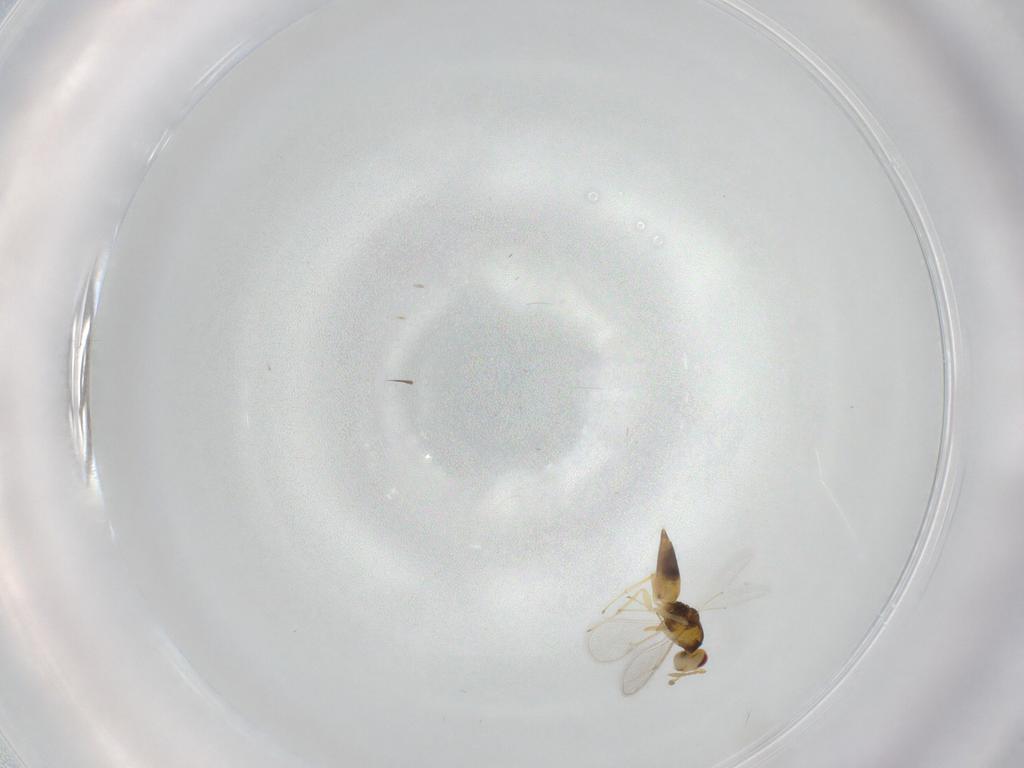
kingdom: Animalia
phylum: Arthropoda
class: Insecta
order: Hymenoptera
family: Eulophidae
